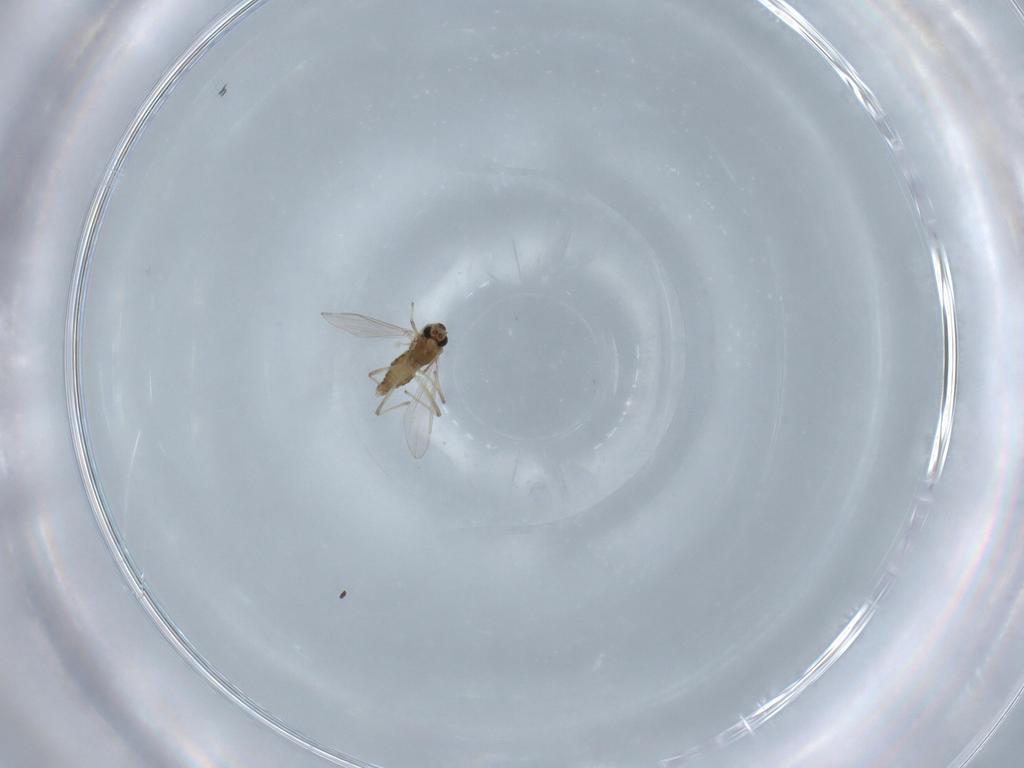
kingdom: Animalia
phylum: Arthropoda
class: Insecta
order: Diptera
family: Chironomidae
